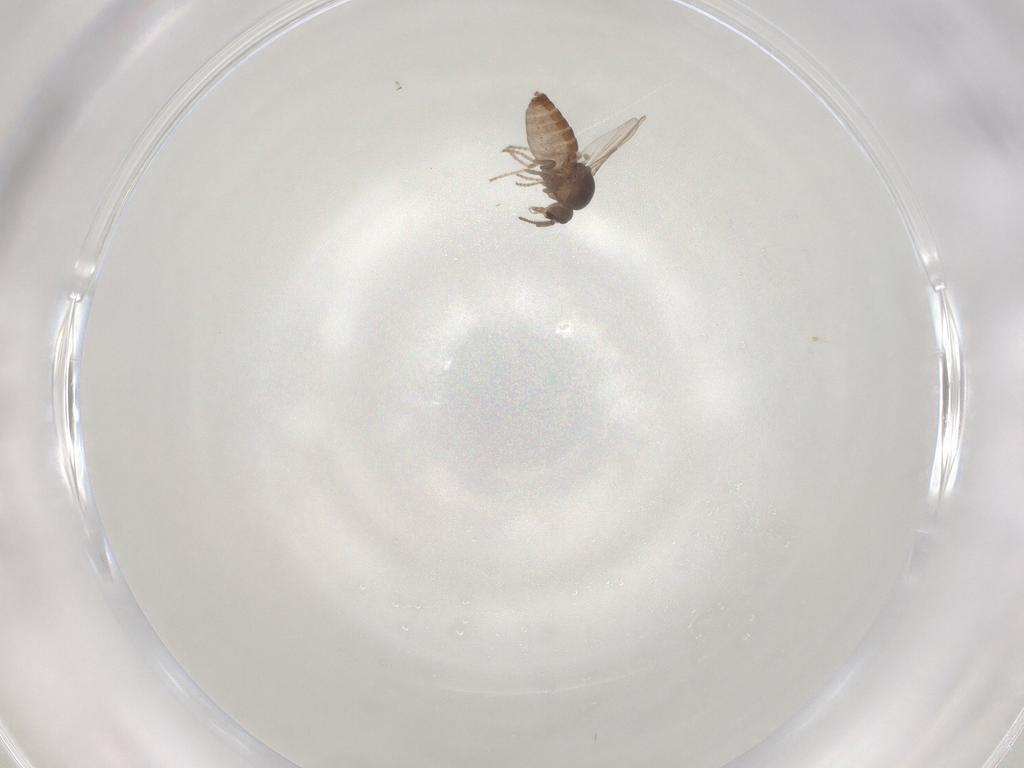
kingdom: Animalia
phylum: Arthropoda
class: Insecta
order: Diptera
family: Ceratopogonidae
